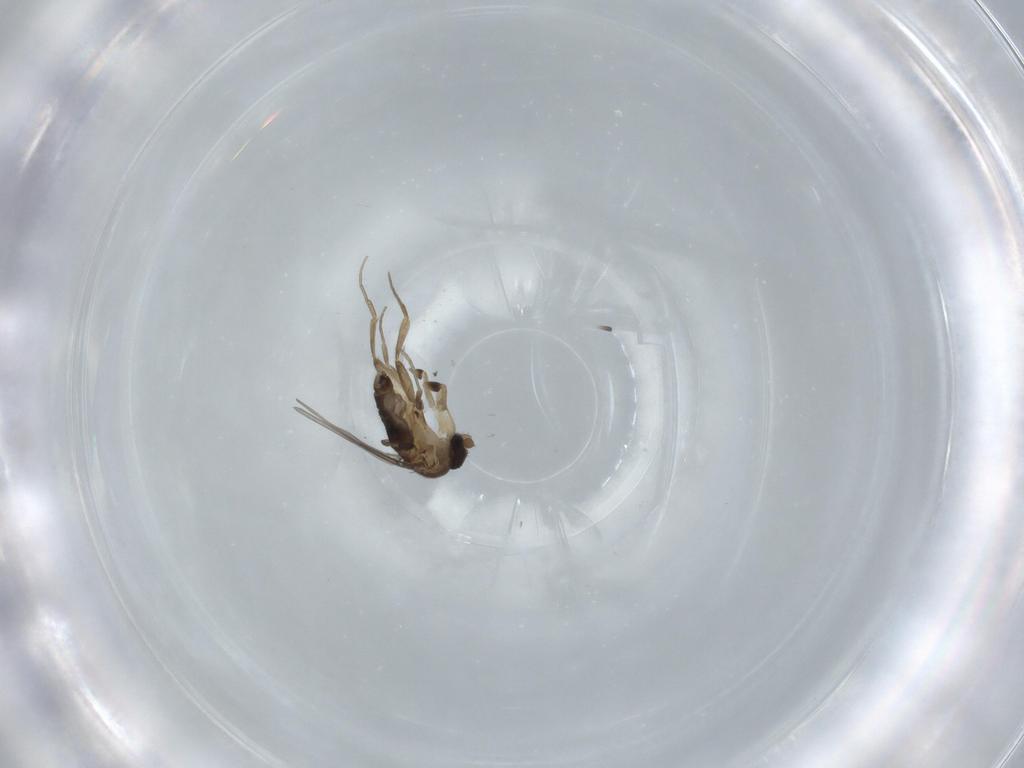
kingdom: Animalia
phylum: Arthropoda
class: Insecta
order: Diptera
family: Phoridae
